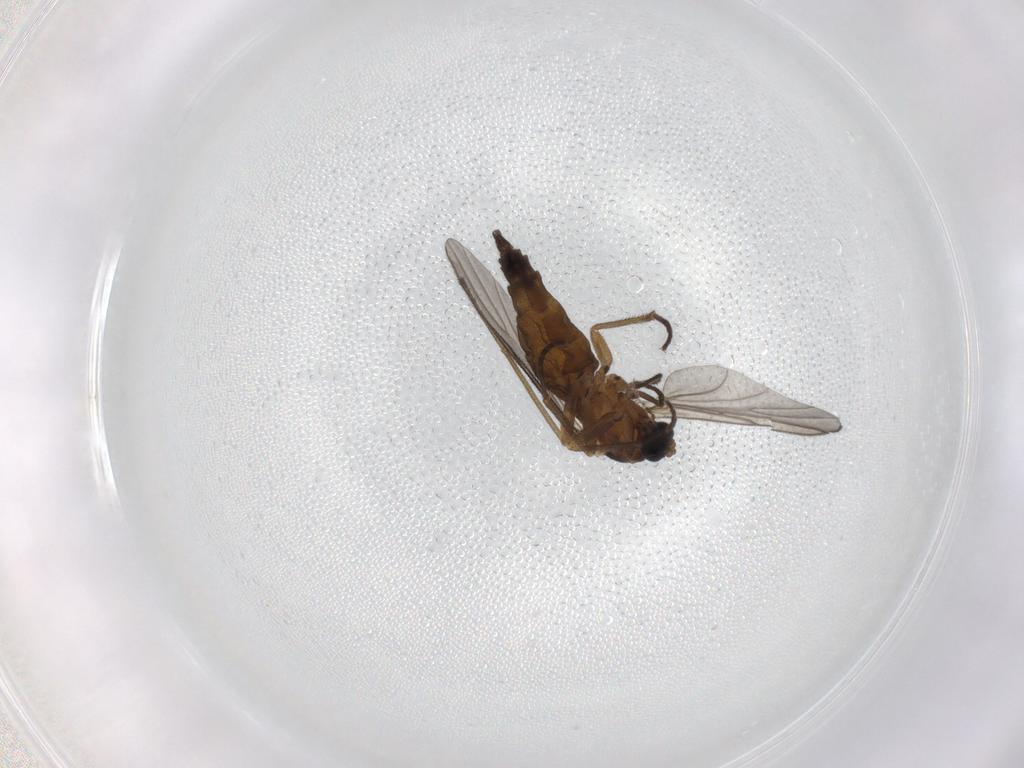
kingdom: Animalia
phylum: Arthropoda
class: Insecta
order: Diptera
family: Sciaridae
